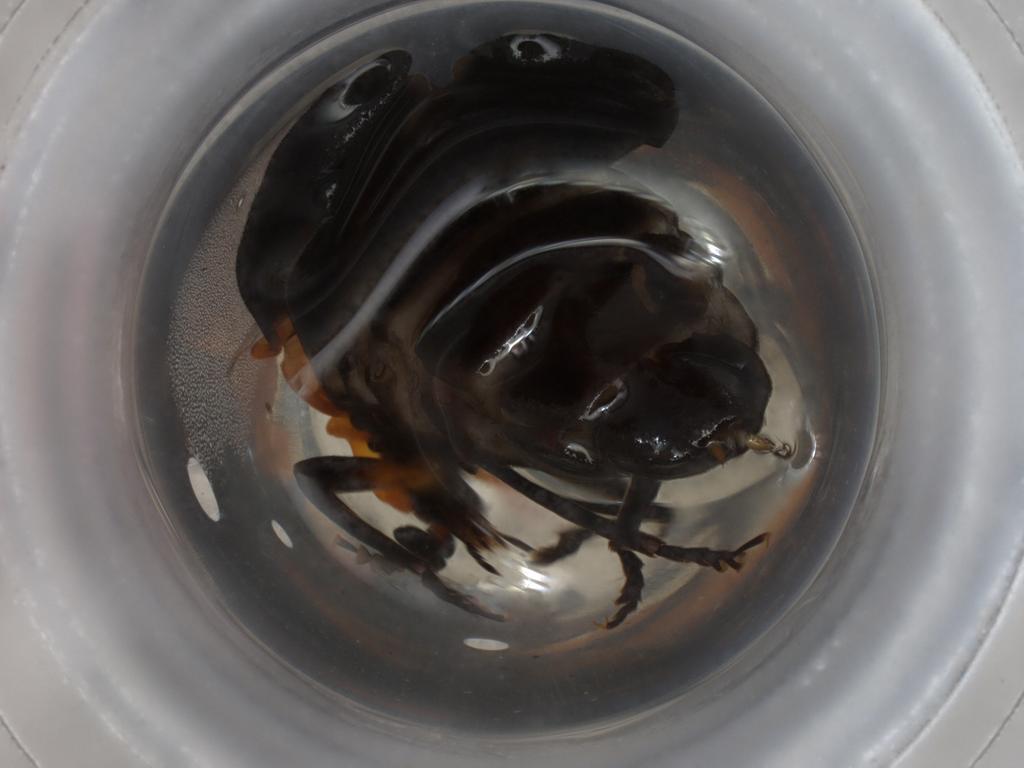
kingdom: Animalia
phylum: Arthropoda
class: Insecta
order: Coleoptera
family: Lycidae
